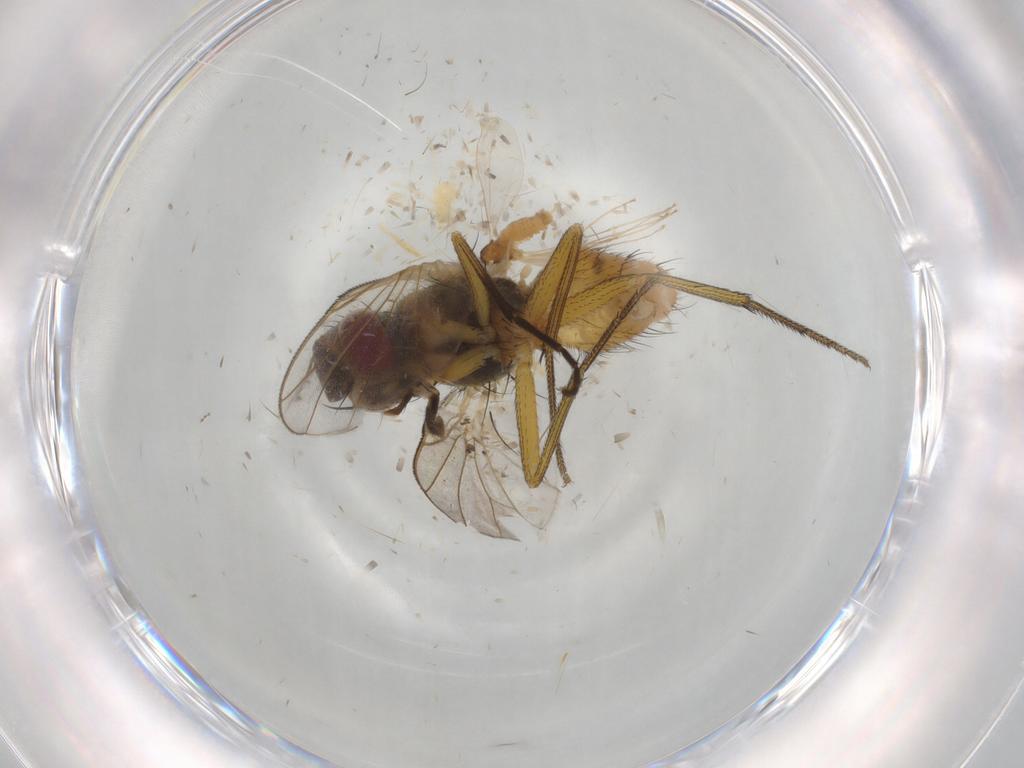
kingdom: Animalia
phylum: Arthropoda
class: Insecta
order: Diptera
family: Muscidae
